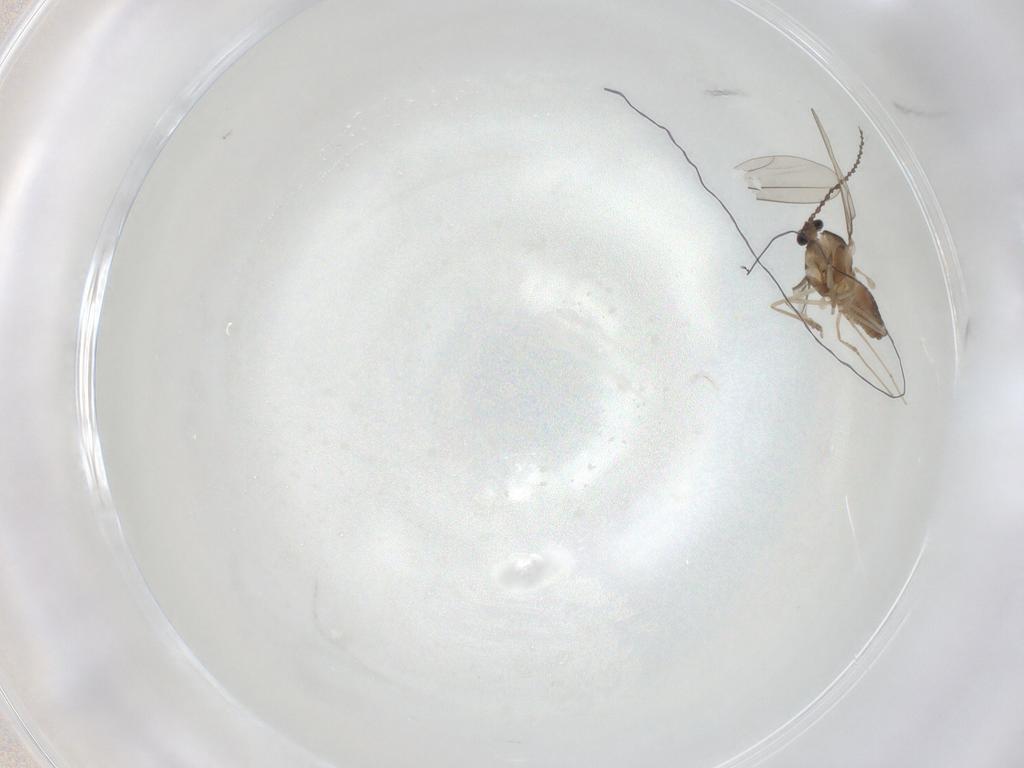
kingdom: Animalia
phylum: Arthropoda
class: Insecta
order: Diptera
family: Cecidomyiidae
